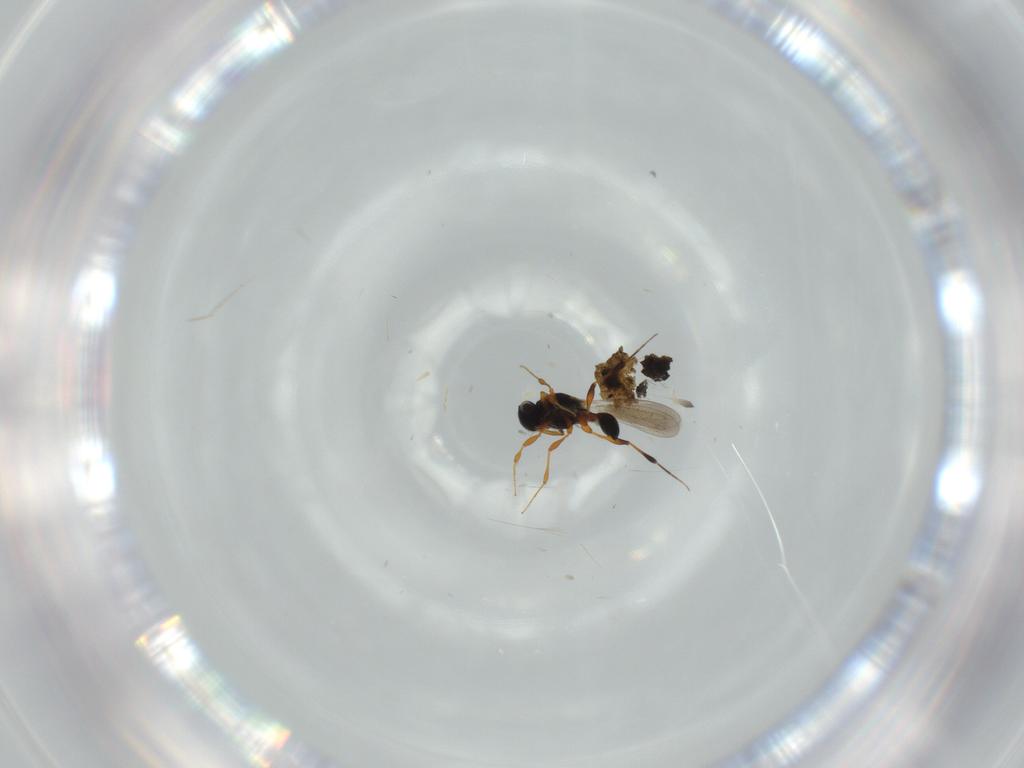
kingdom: Animalia
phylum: Arthropoda
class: Insecta
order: Hymenoptera
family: Platygastridae
